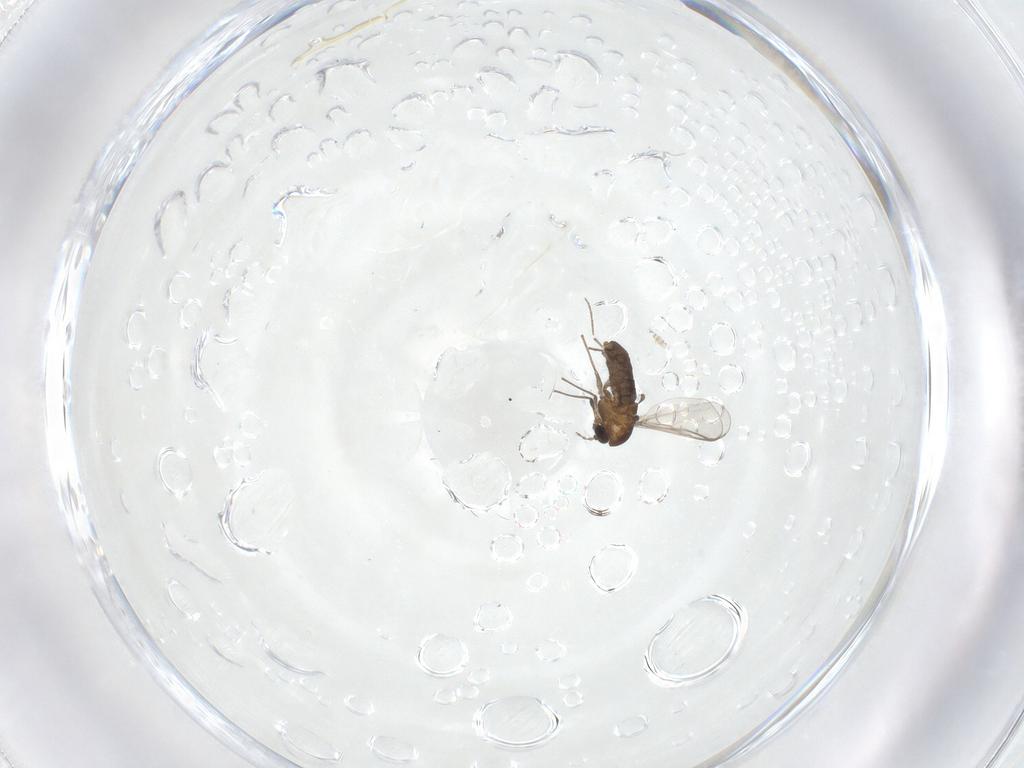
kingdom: Animalia
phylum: Arthropoda
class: Insecta
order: Diptera
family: Chironomidae
